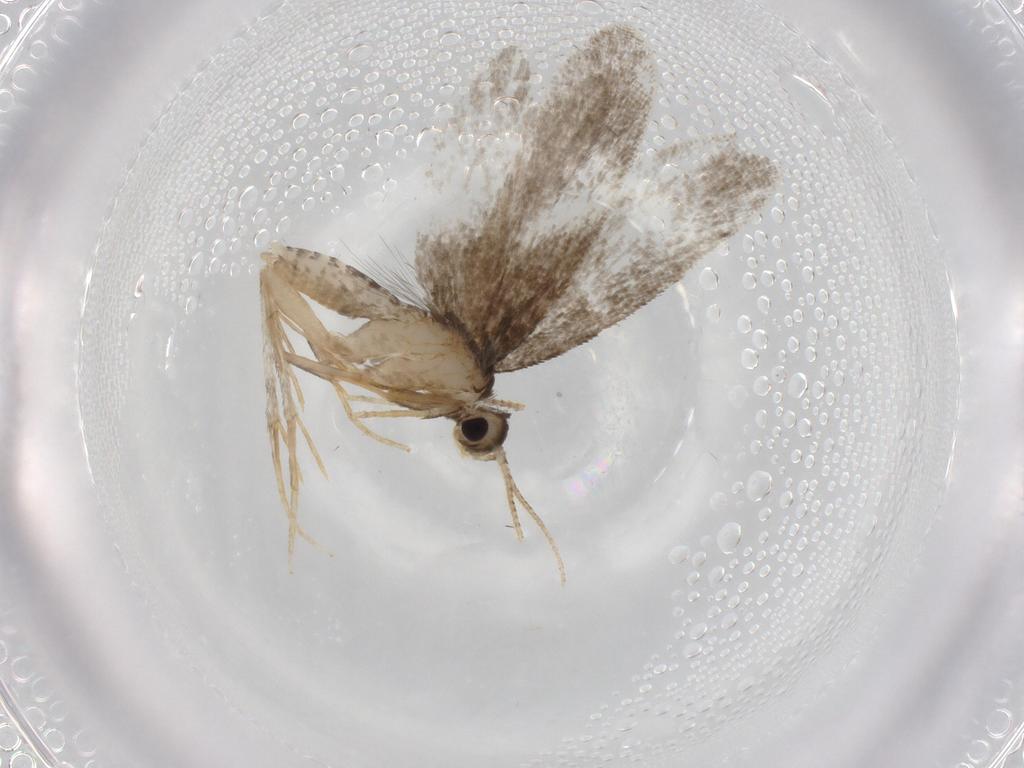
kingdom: Animalia
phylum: Arthropoda
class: Insecta
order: Lepidoptera
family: Psychidae
